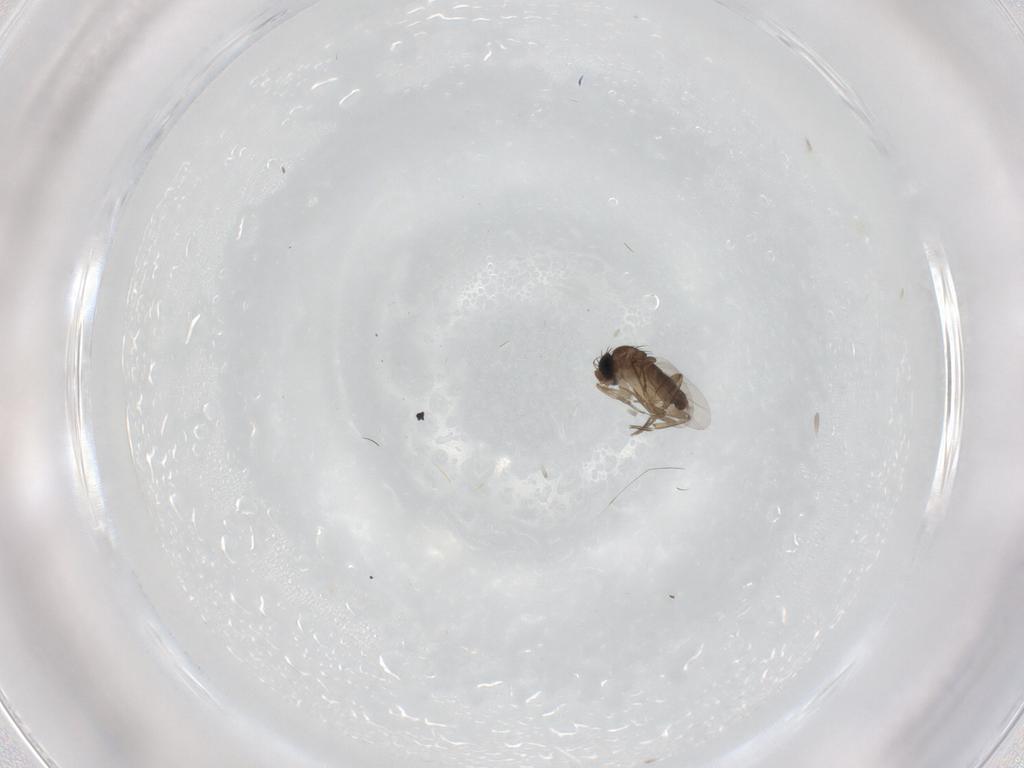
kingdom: Animalia
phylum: Arthropoda
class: Insecta
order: Diptera
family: Phoridae
